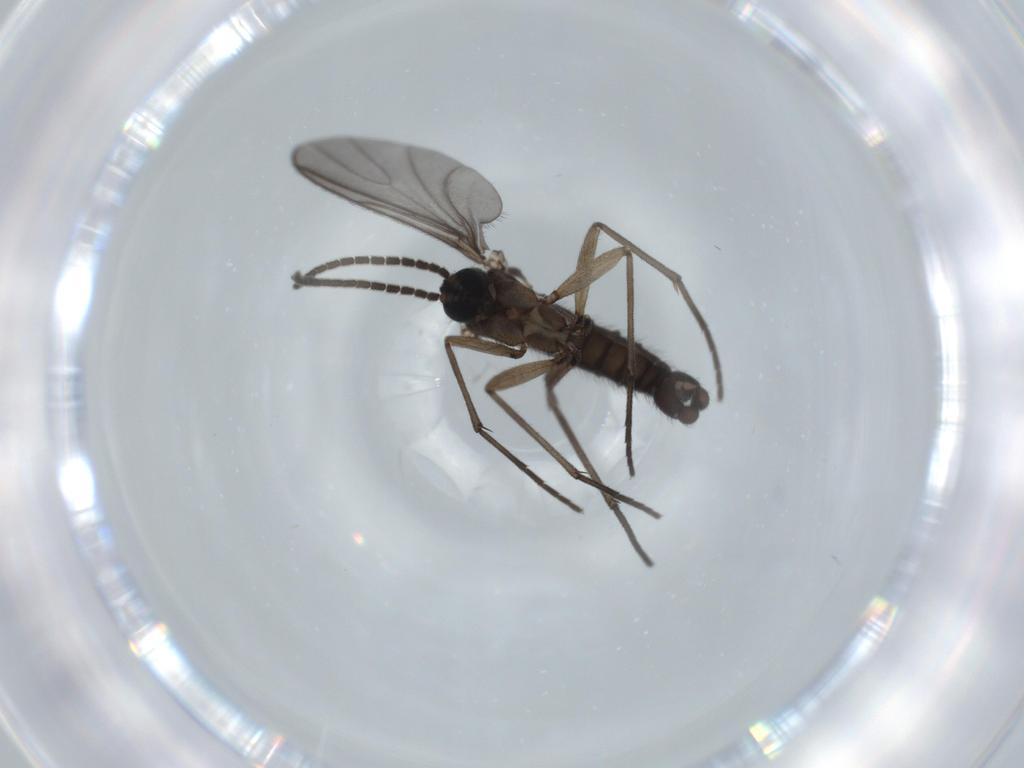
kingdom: Animalia
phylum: Arthropoda
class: Insecta
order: Diptera
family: Sciaridae
